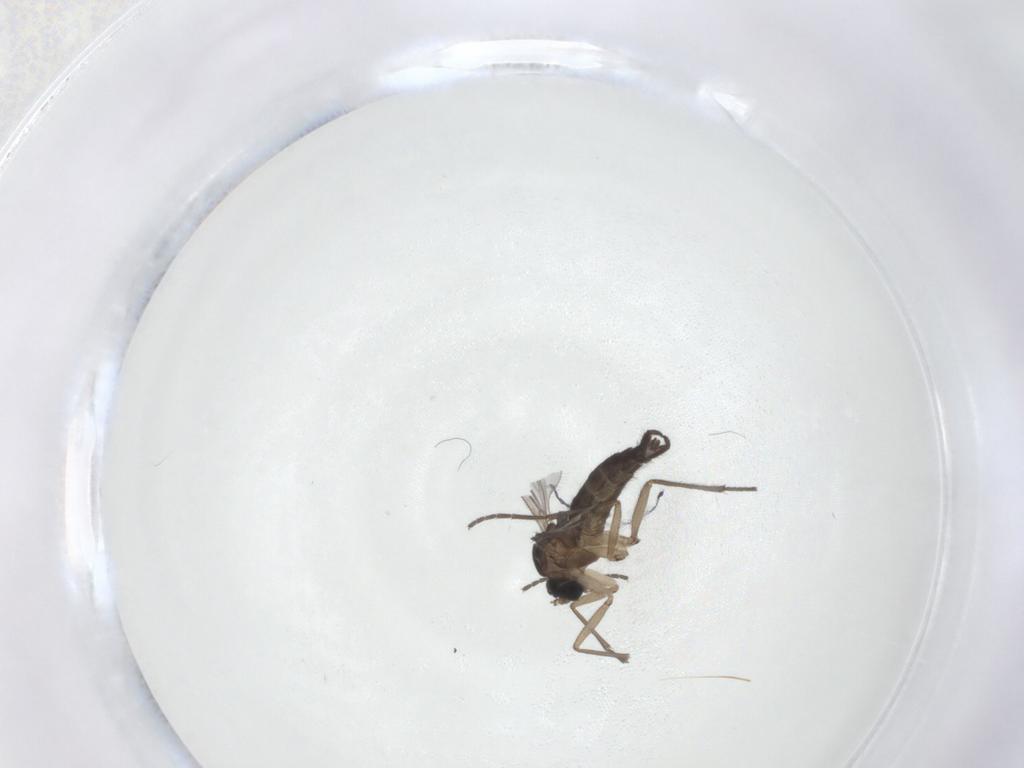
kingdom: Animalia
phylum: Arthropoda
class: Insecta
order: Diptera
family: Sciaridae
